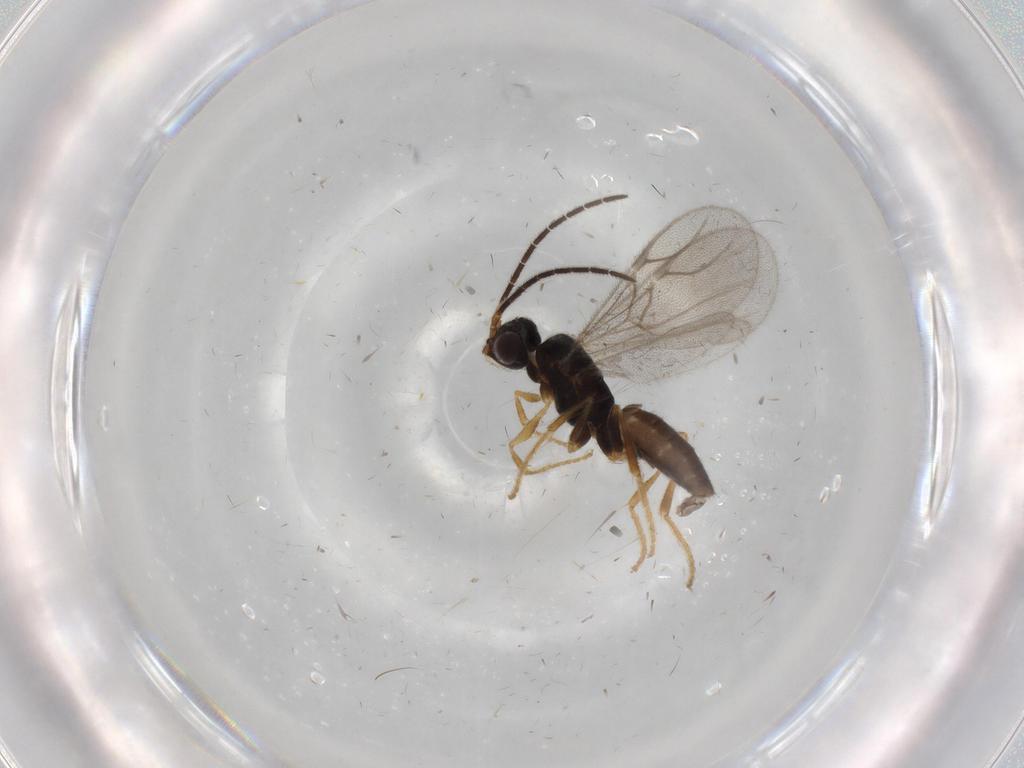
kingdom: Animalia
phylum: Arthropoda
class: Insecta
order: Hymenoptera
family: Dryinidae
